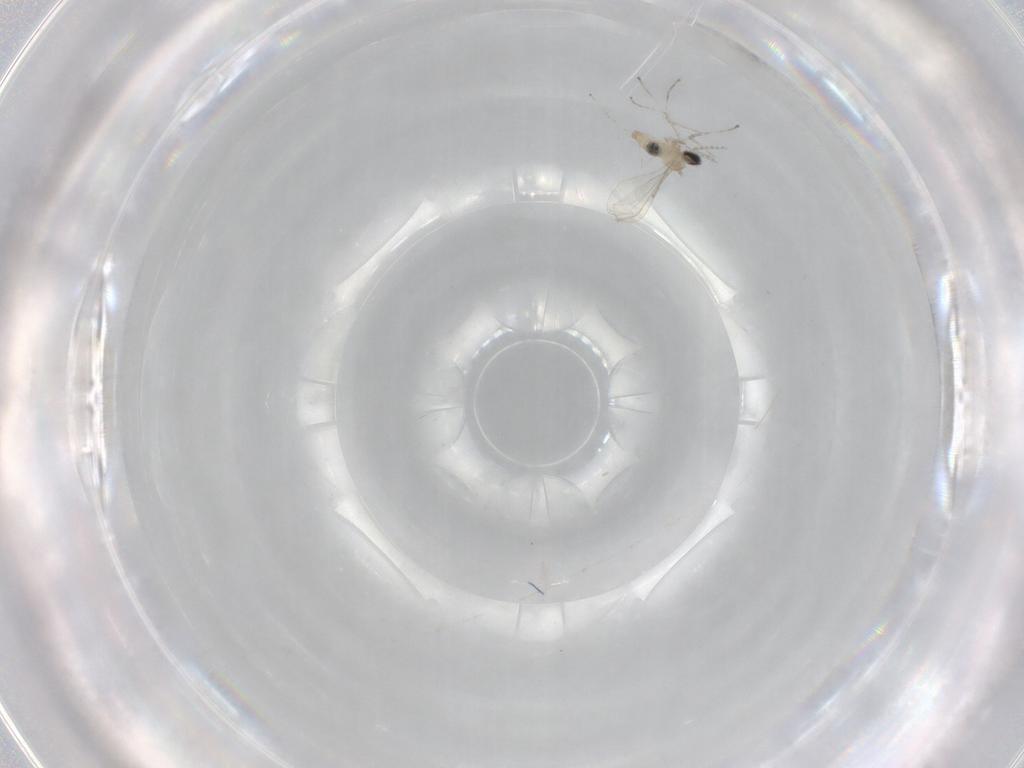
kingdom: Animalia
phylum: Arthropoda
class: Insecta
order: Diptera
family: Cecidomyiidae
